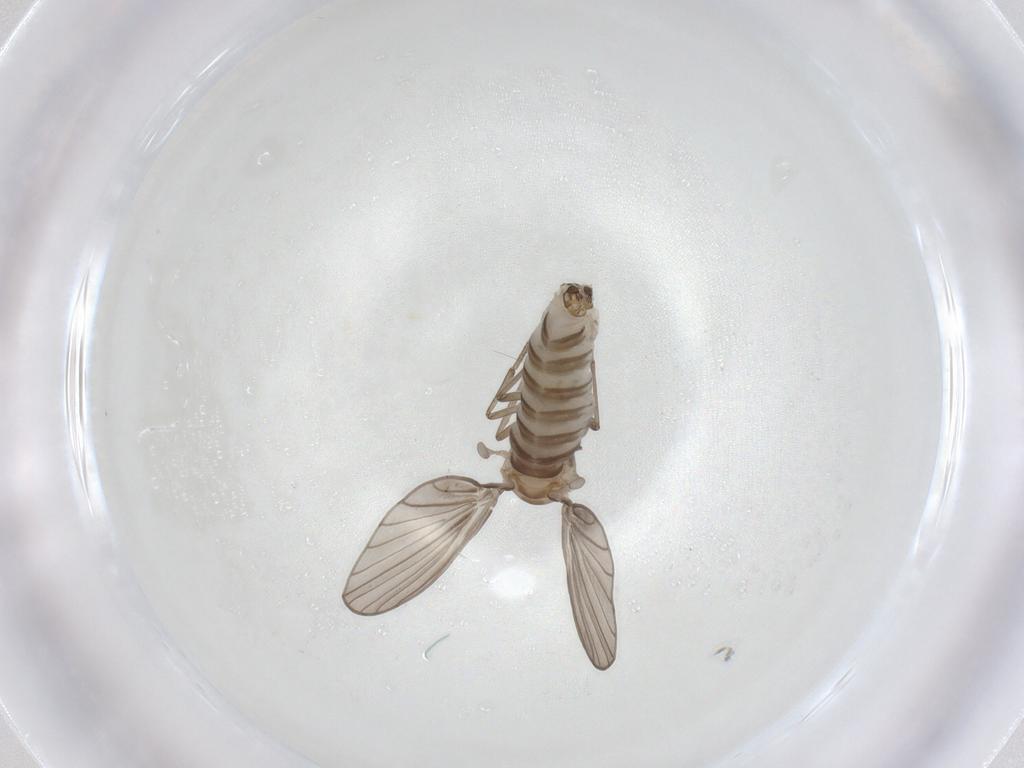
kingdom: Animalia
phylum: Arthropoda
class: Insecta
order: Diptera
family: Psychodidae
